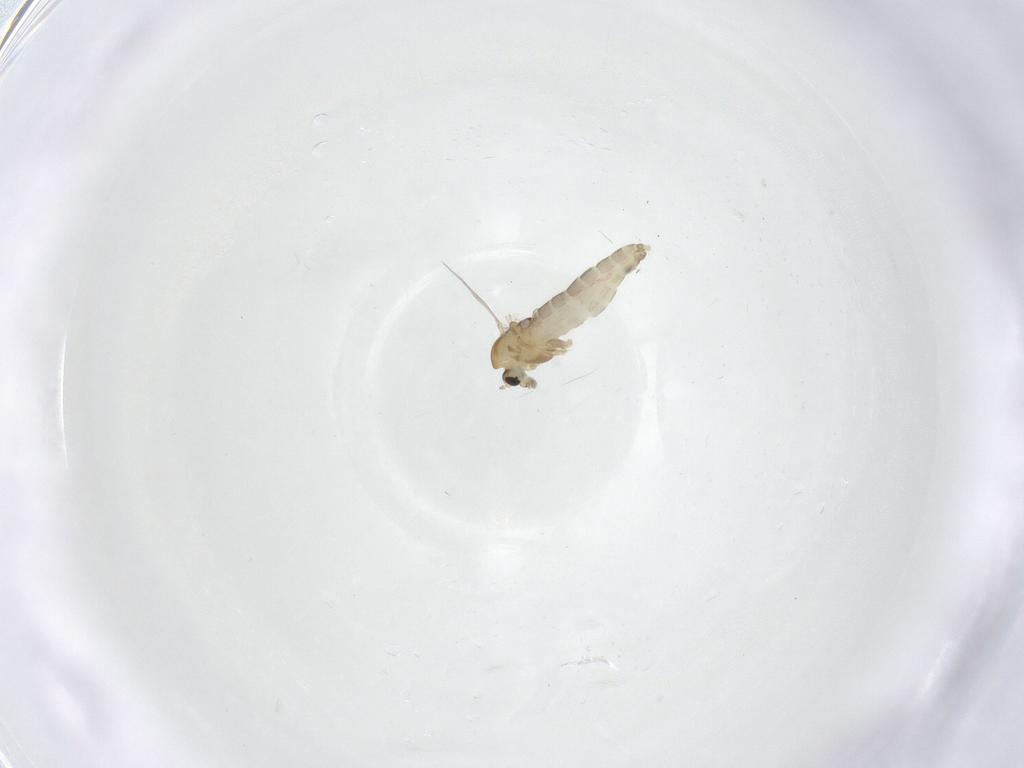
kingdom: Animalia
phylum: Arthropoda
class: Insecta
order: Diptera
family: Chironomidae
